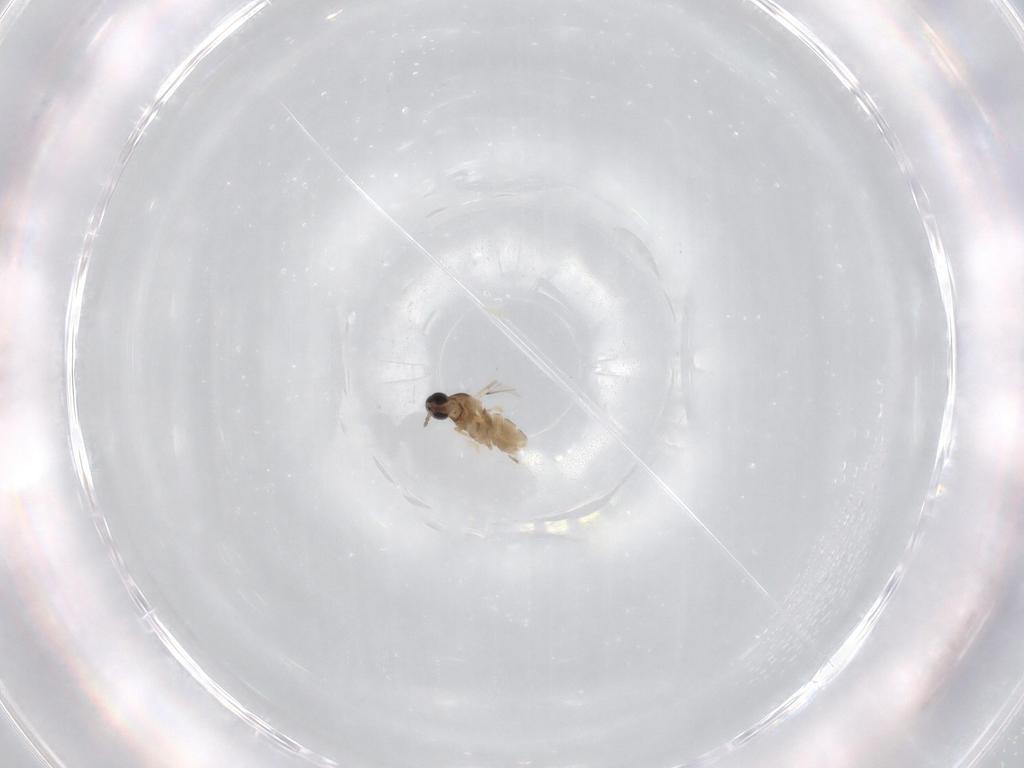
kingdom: Animalia
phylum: Arthropoda
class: Insecta
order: Diptera
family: Cecidomyiidae
